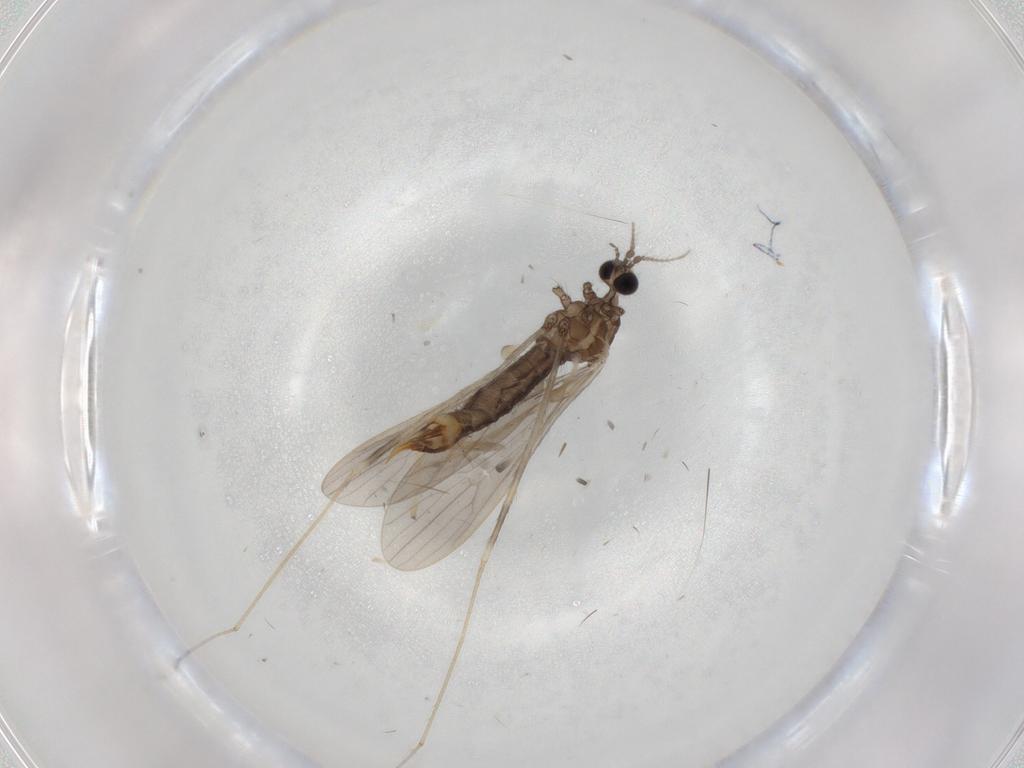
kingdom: Animalia
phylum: Arthropoda
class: Insecta
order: Diptera
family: Limoniidae
